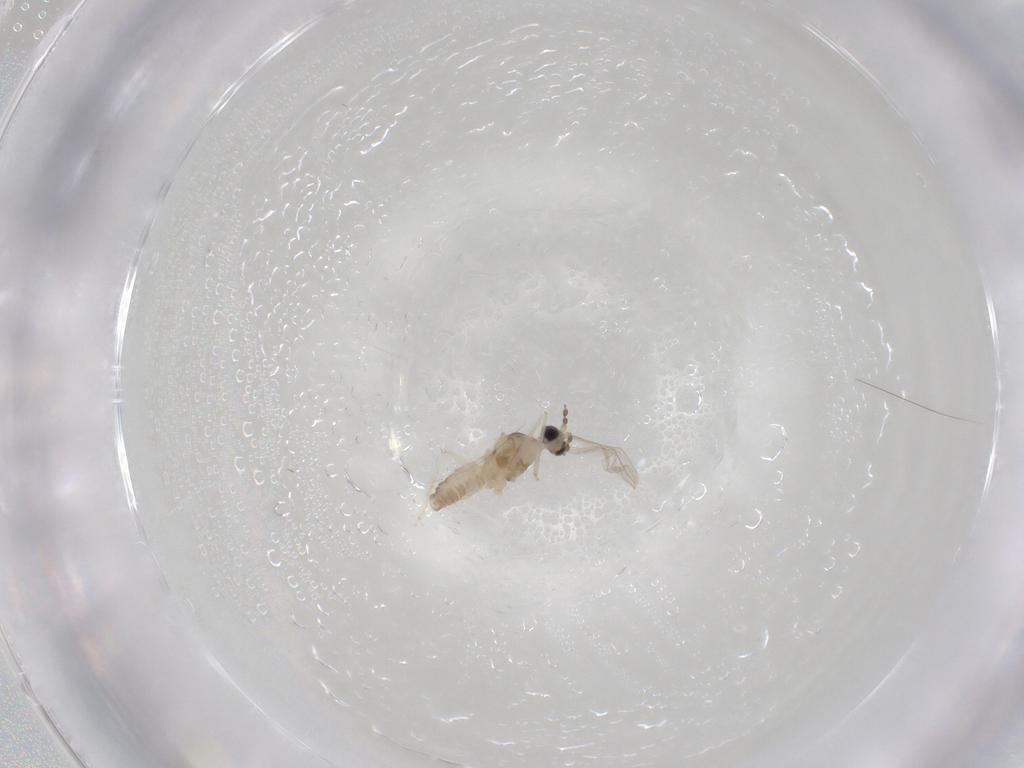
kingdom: Animalia
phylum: Arthropoda
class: Insecta
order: Diptera
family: Cecidomyiidae
